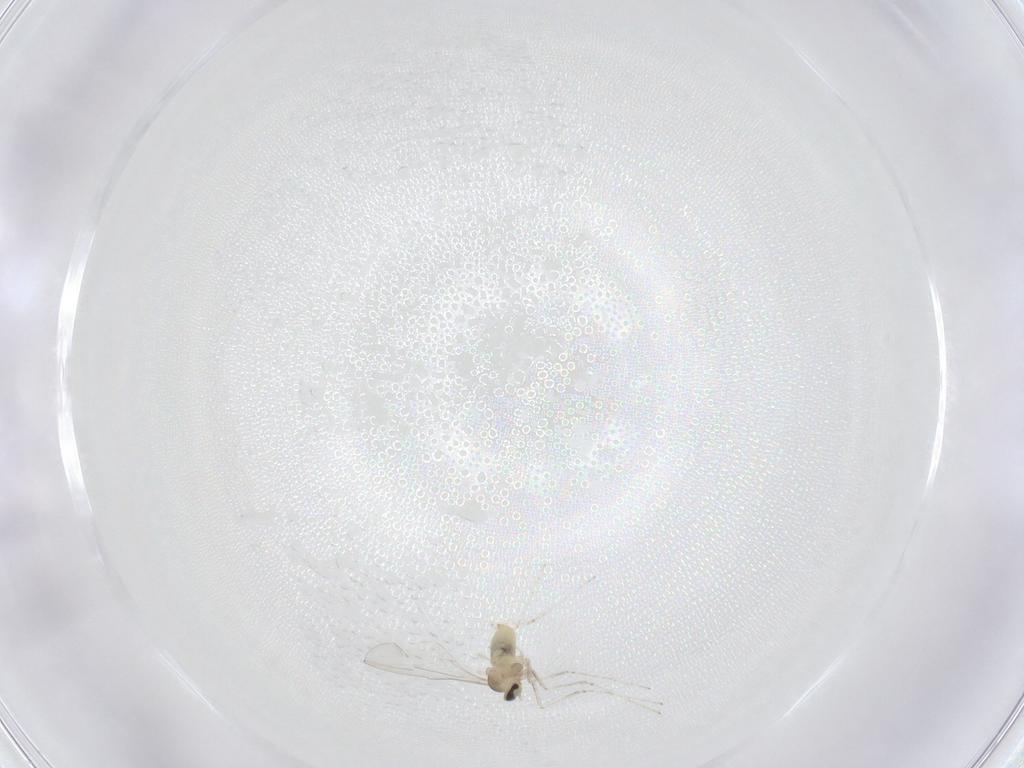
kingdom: Animalia
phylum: Arthropoda
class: Insecta
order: Diptera
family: Cecidomyiidae
